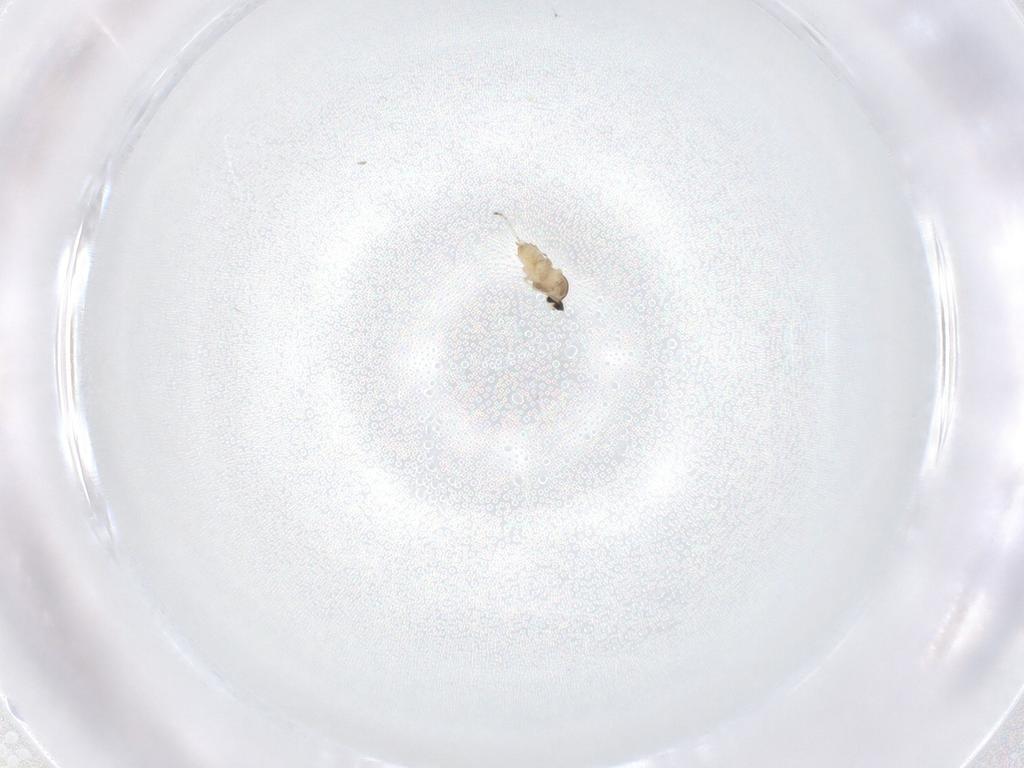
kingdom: Animalia
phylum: Arthropoda
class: Insecta
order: Diptera
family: Cecidomyiidae
